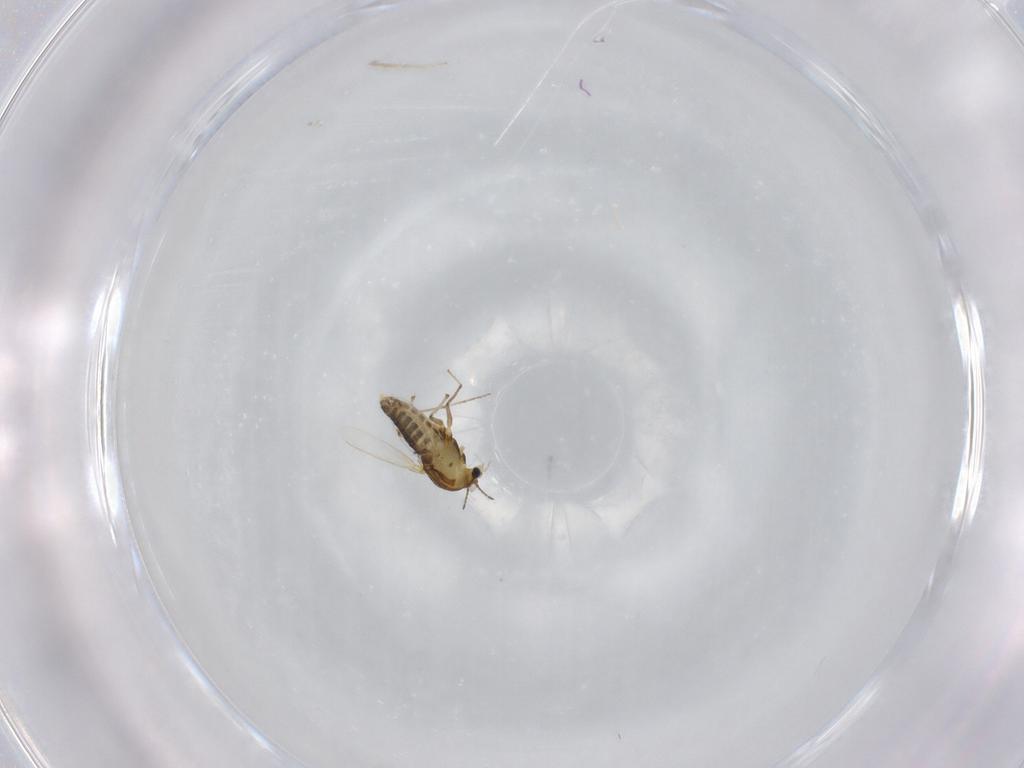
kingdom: Animalia
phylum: Arthropoda
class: Insecta
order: Diptera
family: Chironomidae
